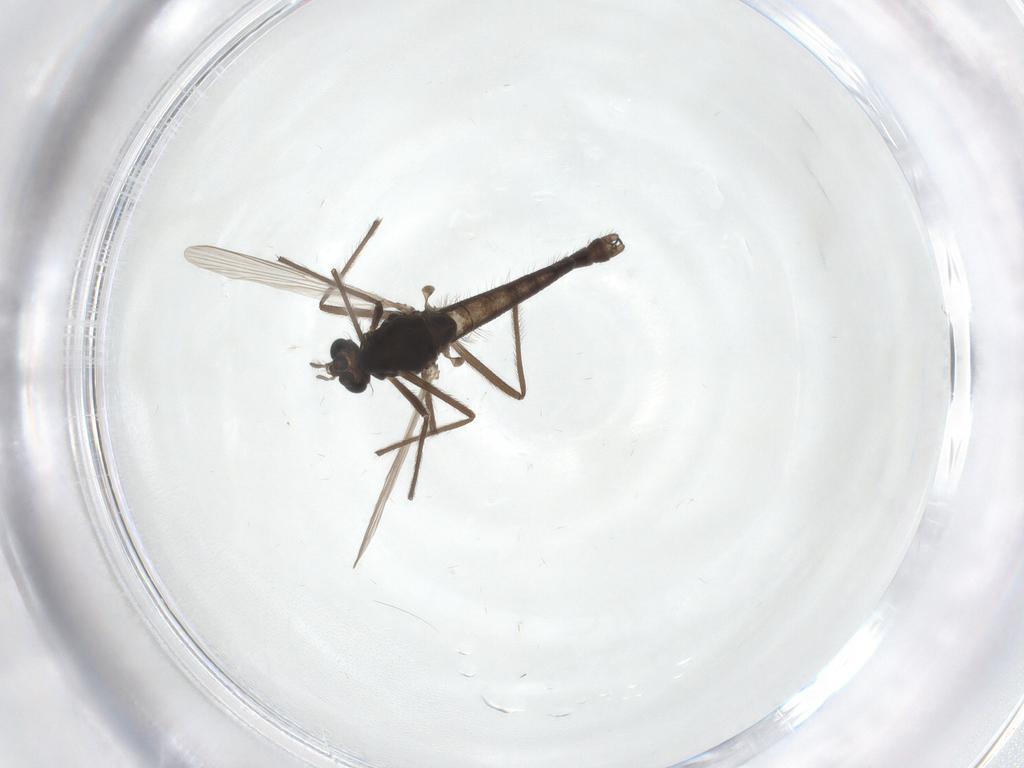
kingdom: Animalia
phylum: Arthropoda
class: Insecta
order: Diptera
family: Chironomidae
